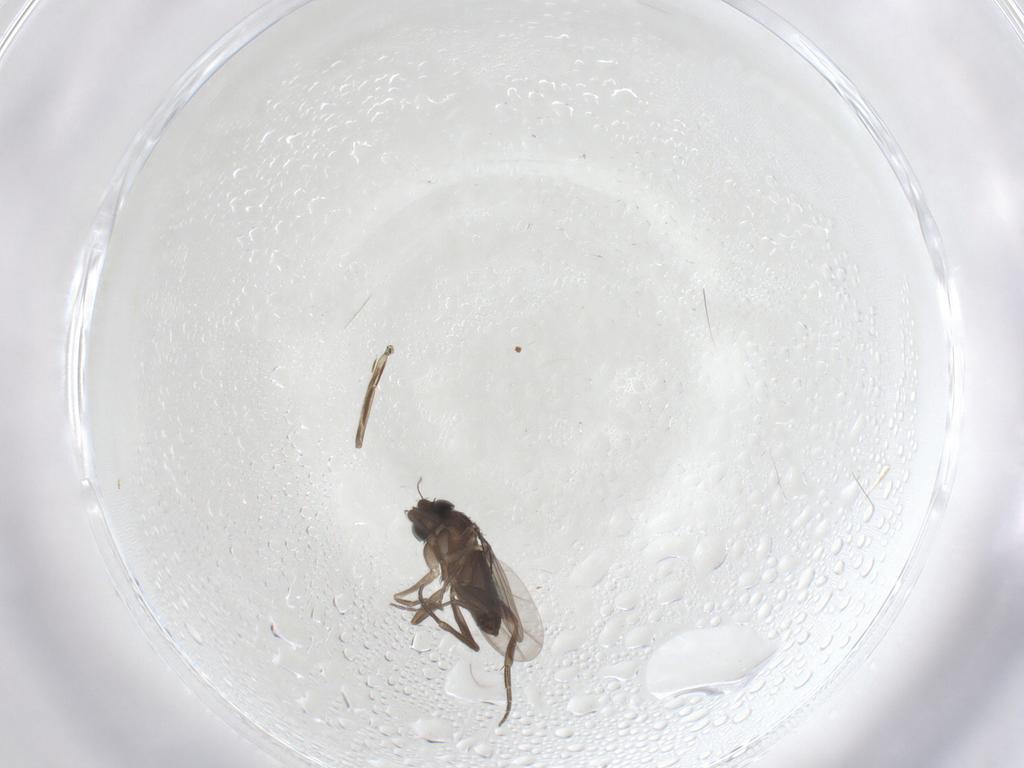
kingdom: Animalia
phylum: Arthropoda
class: Insecta
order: Diptera
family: Phoridae
